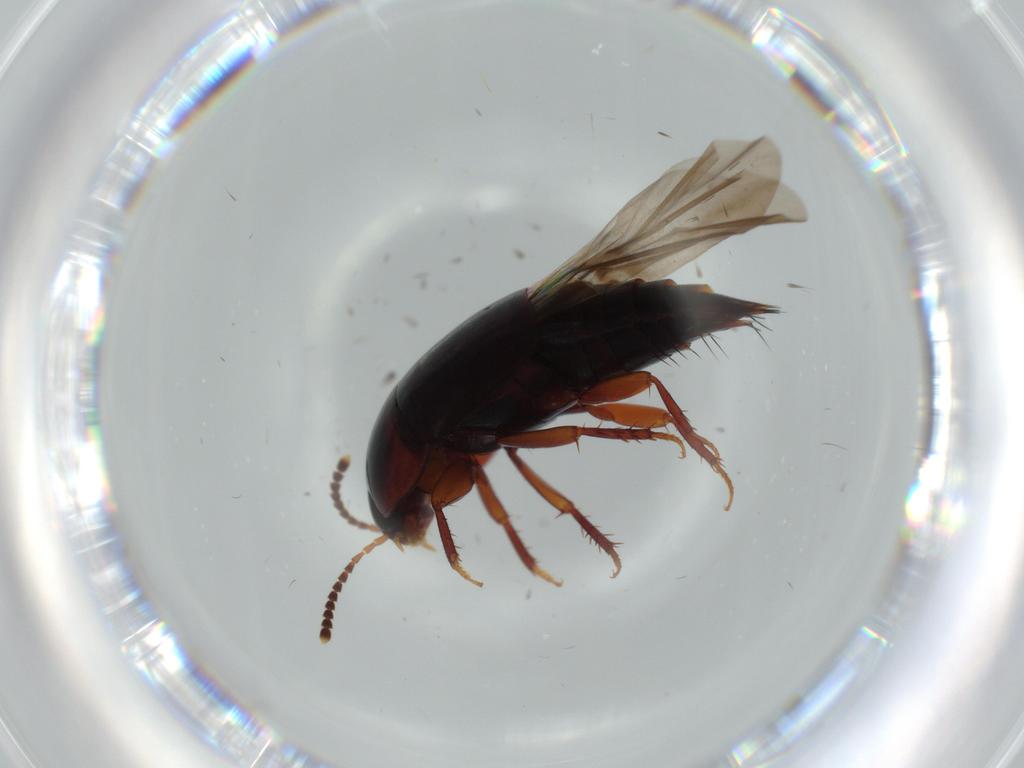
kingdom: Animalia
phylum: Arthropoda
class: Insecta
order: Coleoptera
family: Staphylinidae
